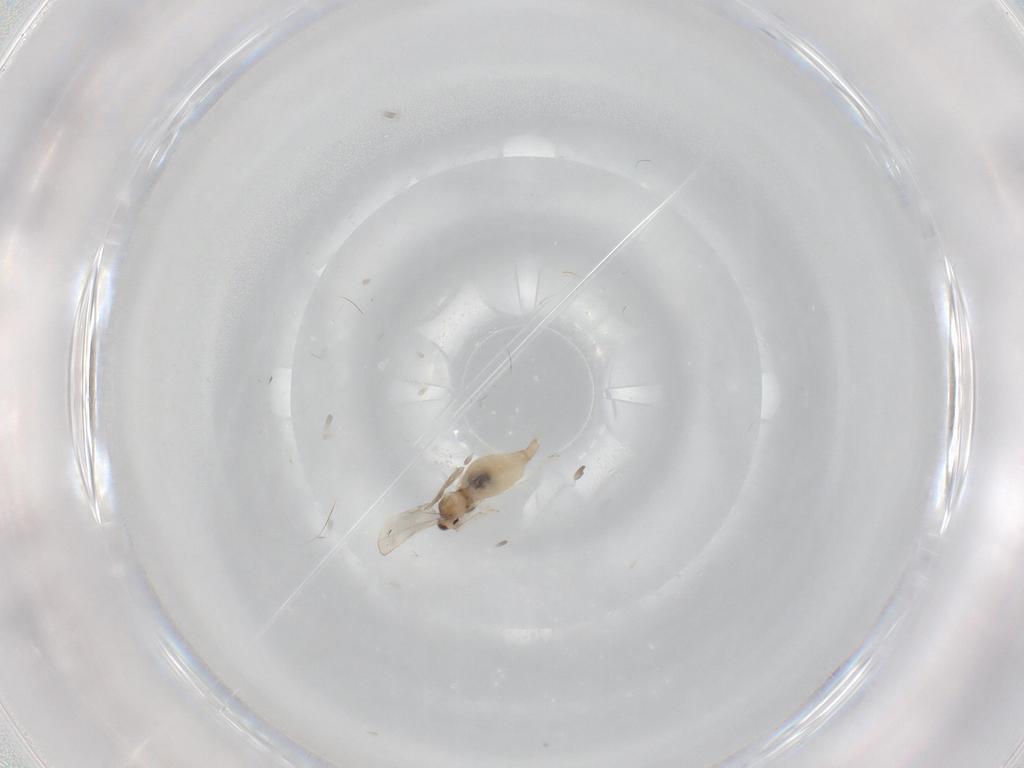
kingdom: Animalia
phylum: Arthropoda
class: Insecta
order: Diptera
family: Cecidomyiidae
